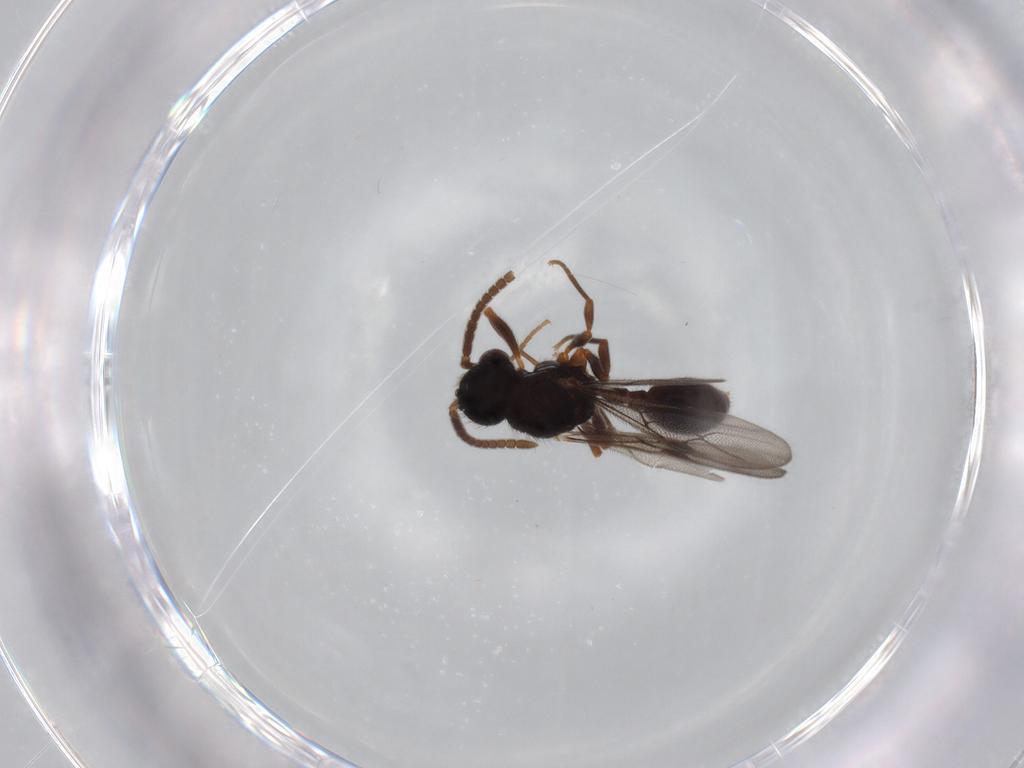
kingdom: Animalia
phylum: Arthropoda
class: Insecta
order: Hymenoptera
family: Formicidae
